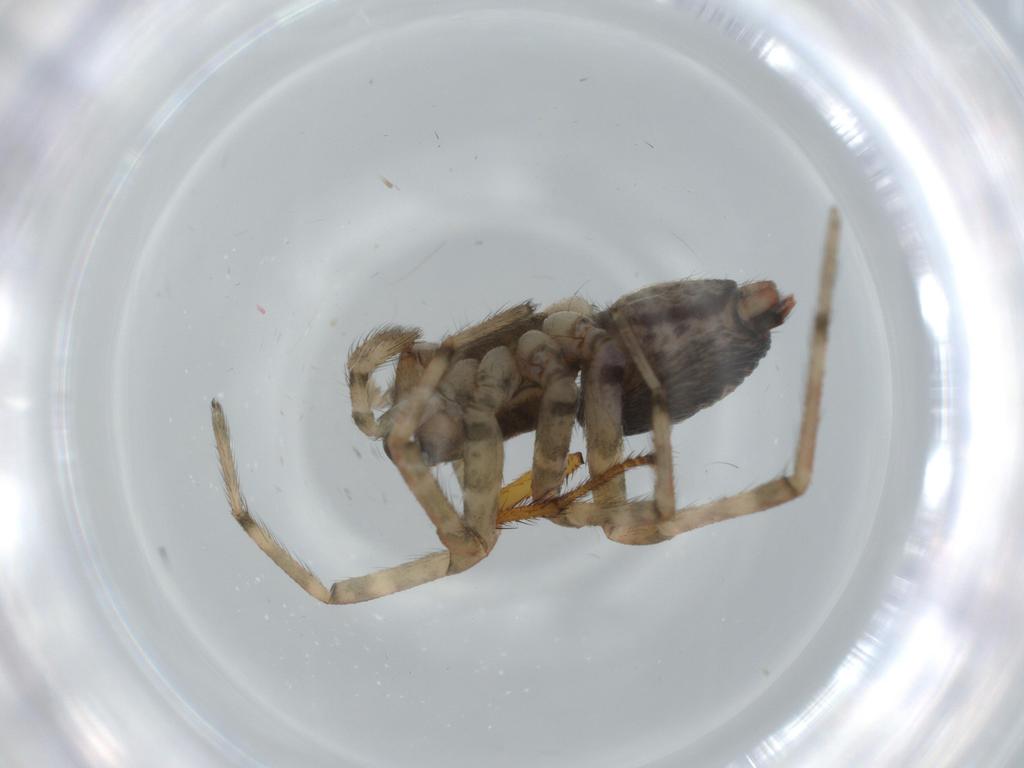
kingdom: Animalia
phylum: Arthropoda
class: Arachnida
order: Araneae
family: Agelenidae
